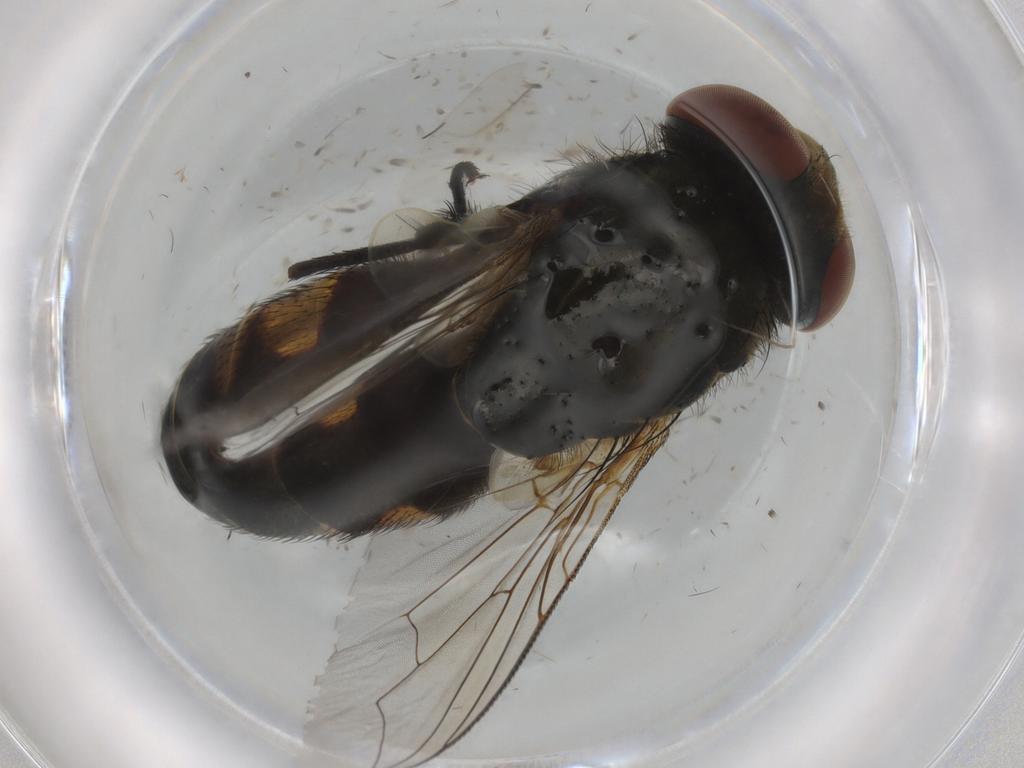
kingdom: Animalia
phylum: Arthropoda
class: Insecta
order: Diptera
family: Sarcophagidae
